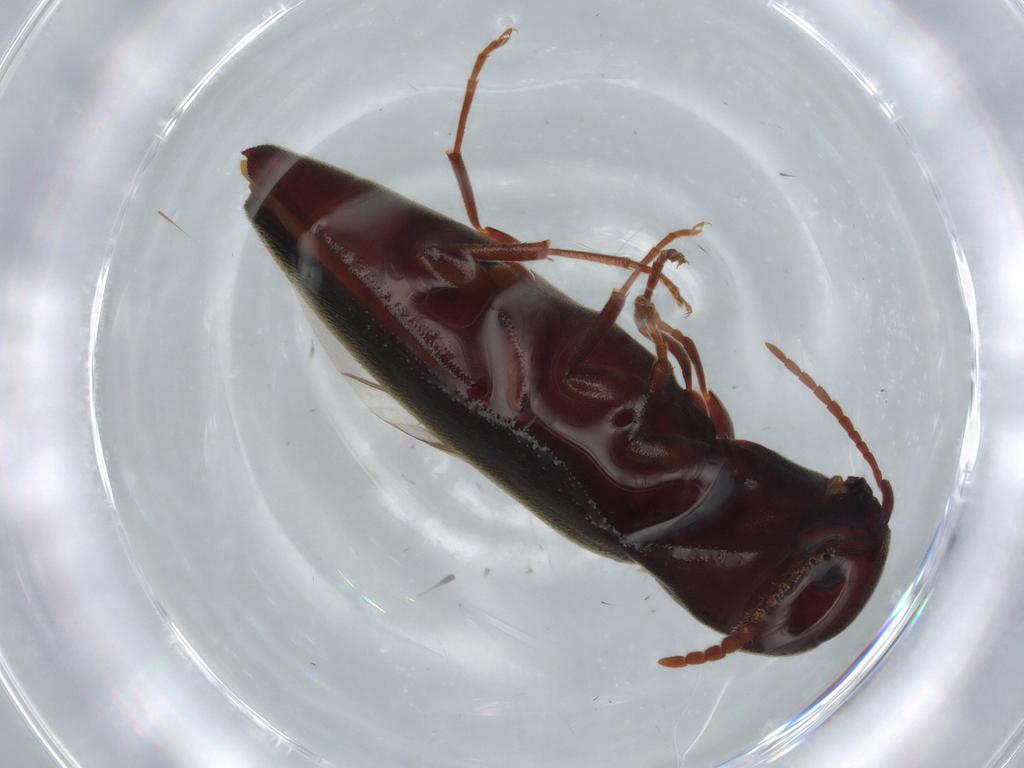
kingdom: Animalia
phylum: Arthropoda
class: Insecta
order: Coleoptera
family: Eucnemidae
